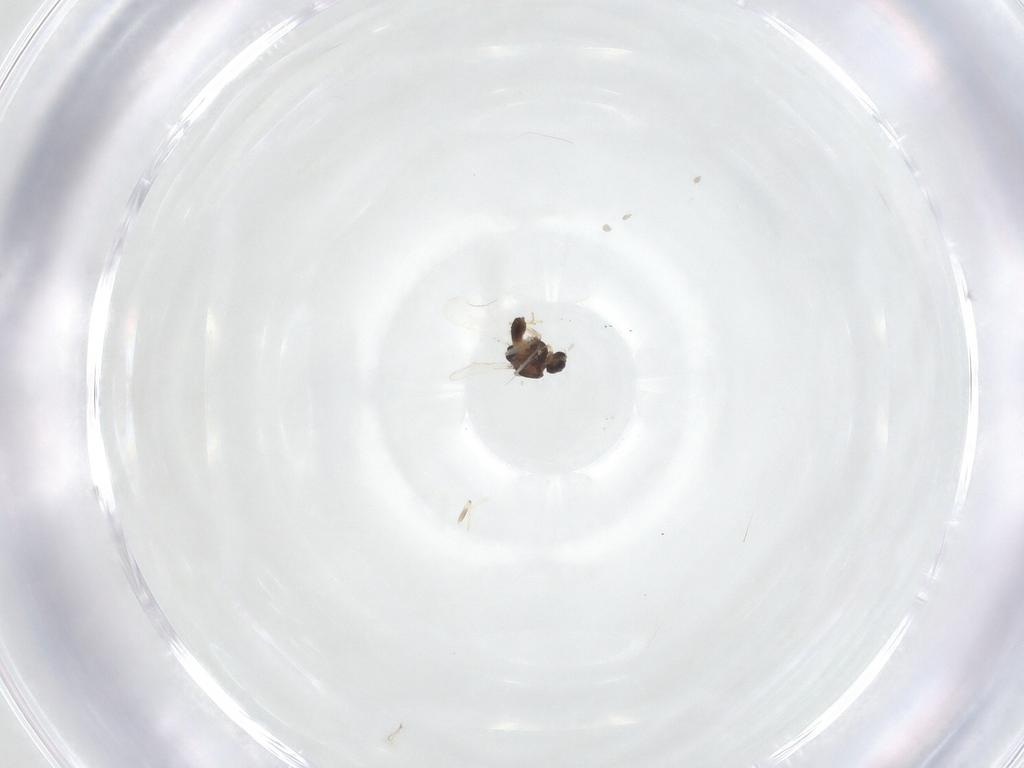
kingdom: Animalia
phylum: Arthropoda
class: Insecta
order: Diptera
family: Chironomidae
